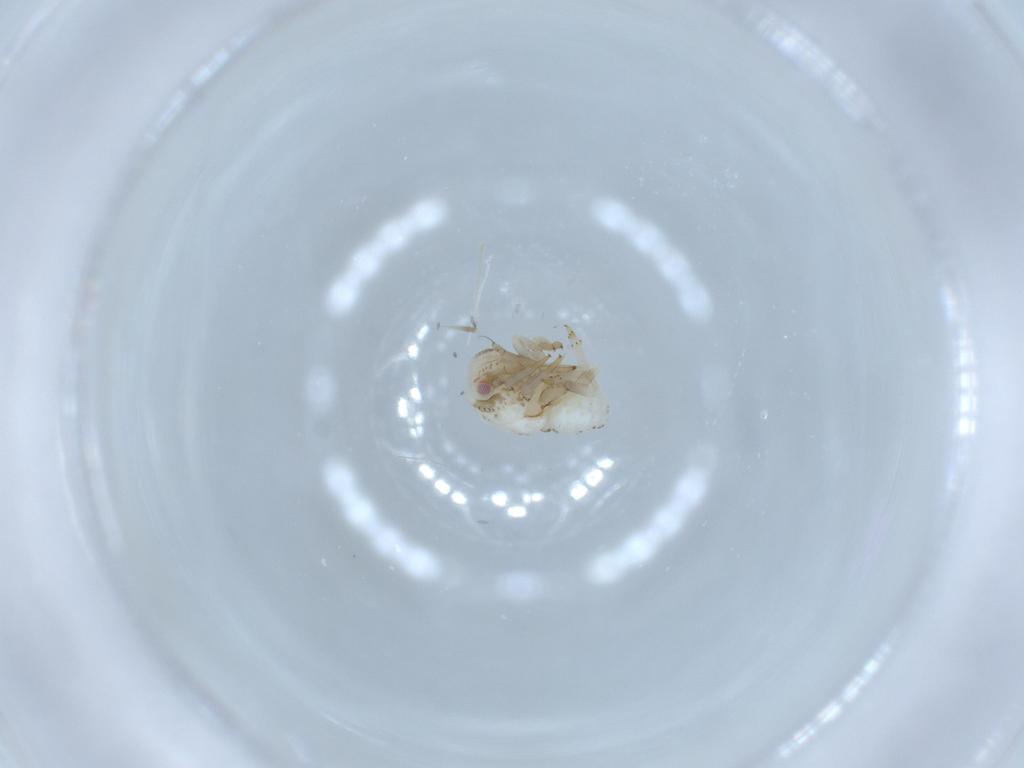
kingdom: Animalia
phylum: Arthropoda
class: Insecta
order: Hemiptera
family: Acanaloniidae
